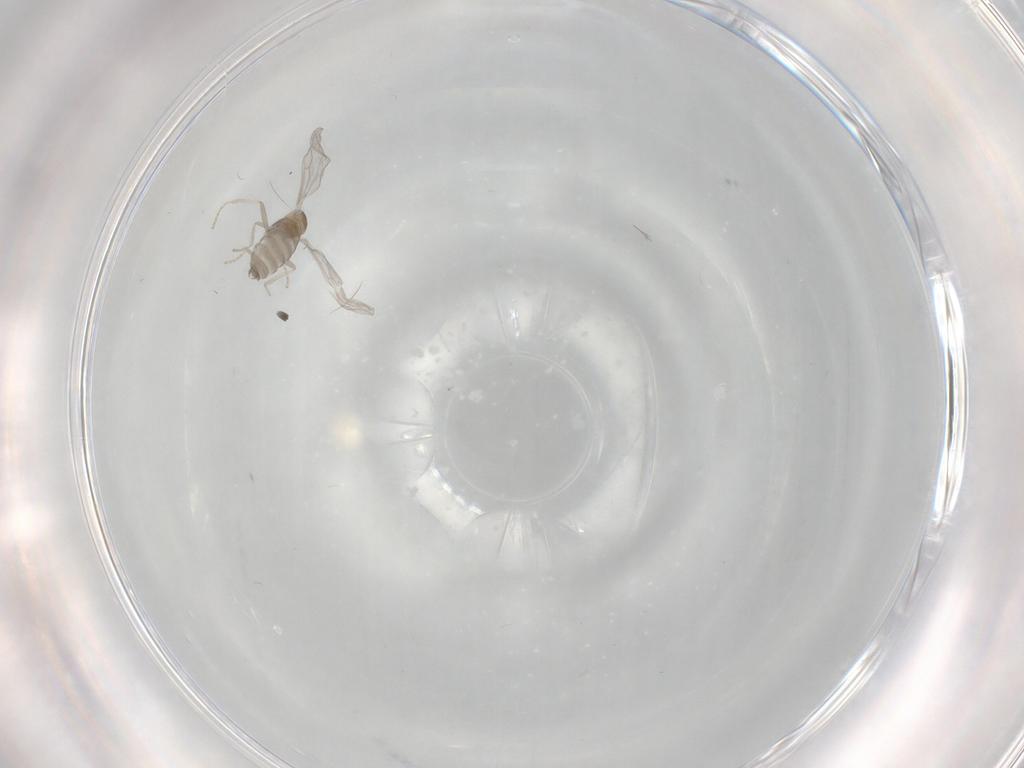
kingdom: Animalia
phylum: Arthropoda
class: Insecta
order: Diptera
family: Cecidomyiidae
